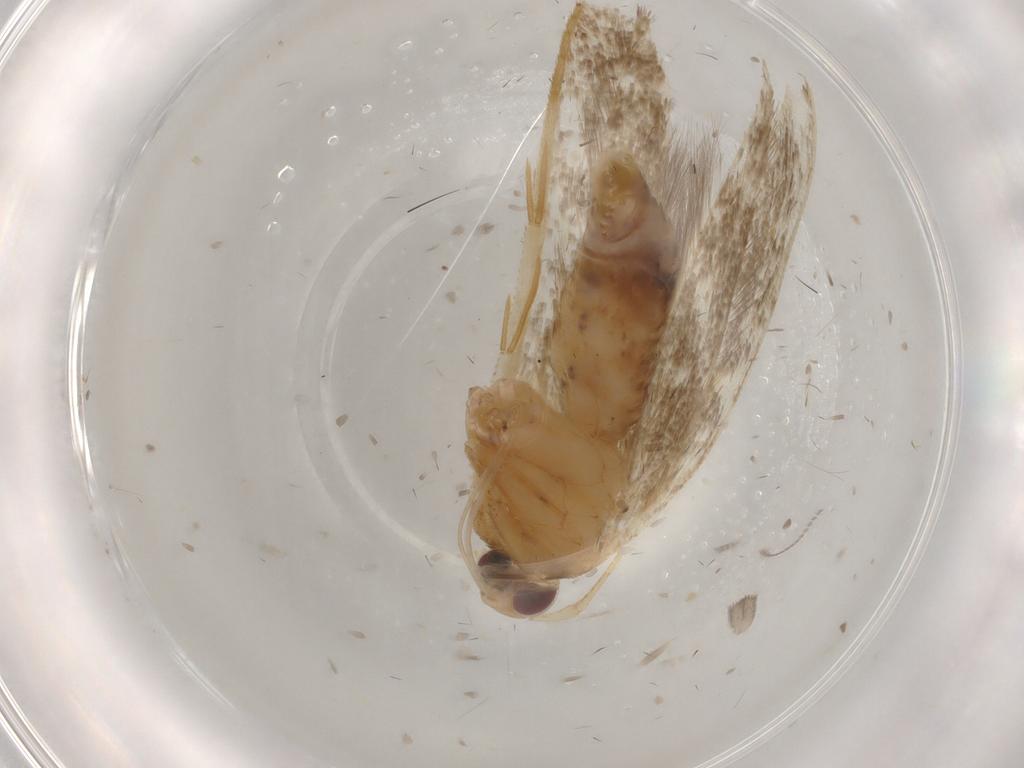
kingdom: Animalia
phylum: Arthropoda
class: Insecta
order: Lepidoptera
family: Cosmopterigidae
